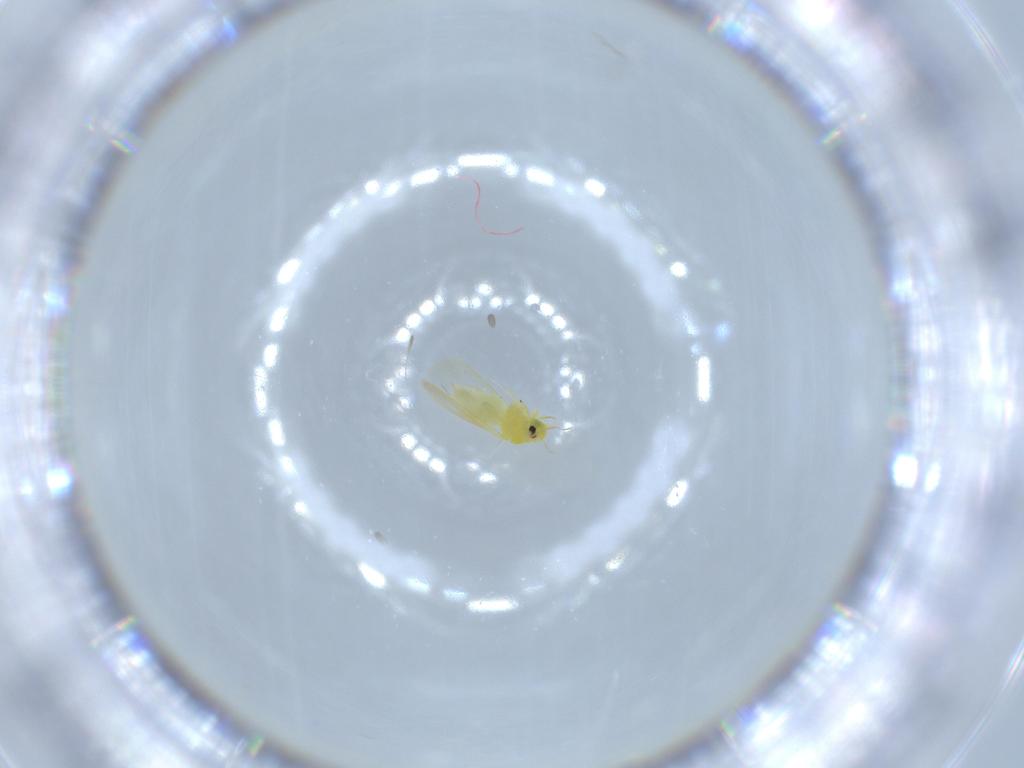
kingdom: Animalia
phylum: Arthropoda
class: Insecta
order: Hemiptera
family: Aleyrodidae
